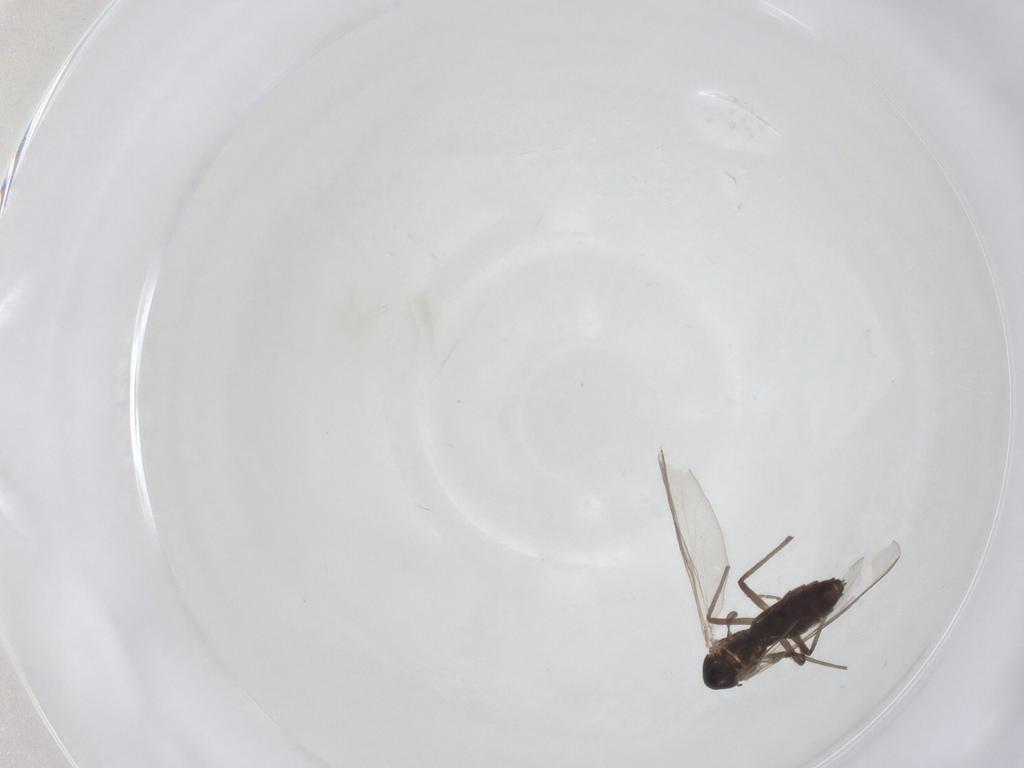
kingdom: Animalia
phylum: Arthropoda
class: Insecta
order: Diptera
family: Chironomidae
